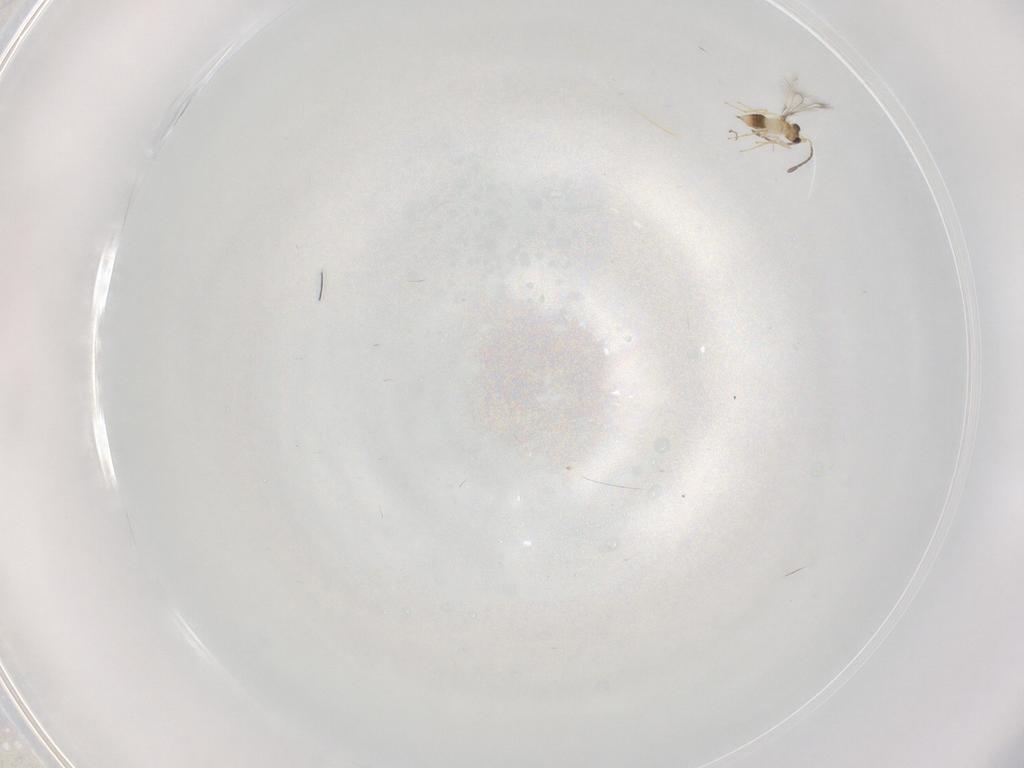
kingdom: Animalia
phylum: Arthropoda
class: Insecta
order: Hymenoptera
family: Mymaridae
